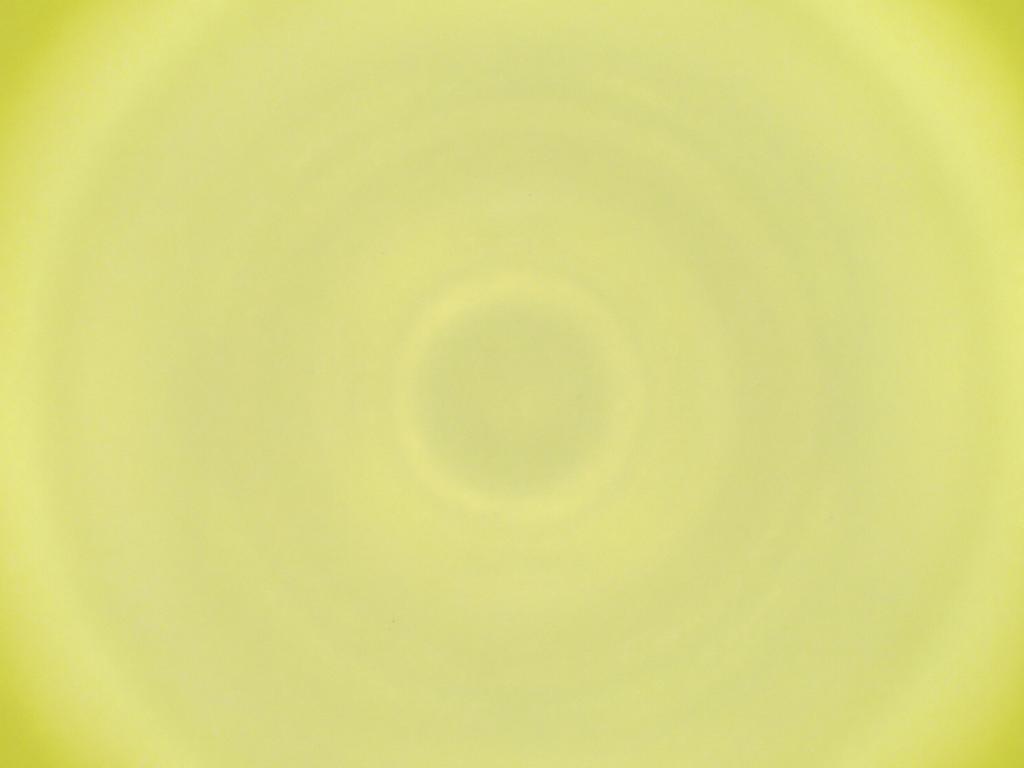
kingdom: Animalia
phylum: Arthropoda
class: Insecta
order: Diptera
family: Cecidomyiidae
